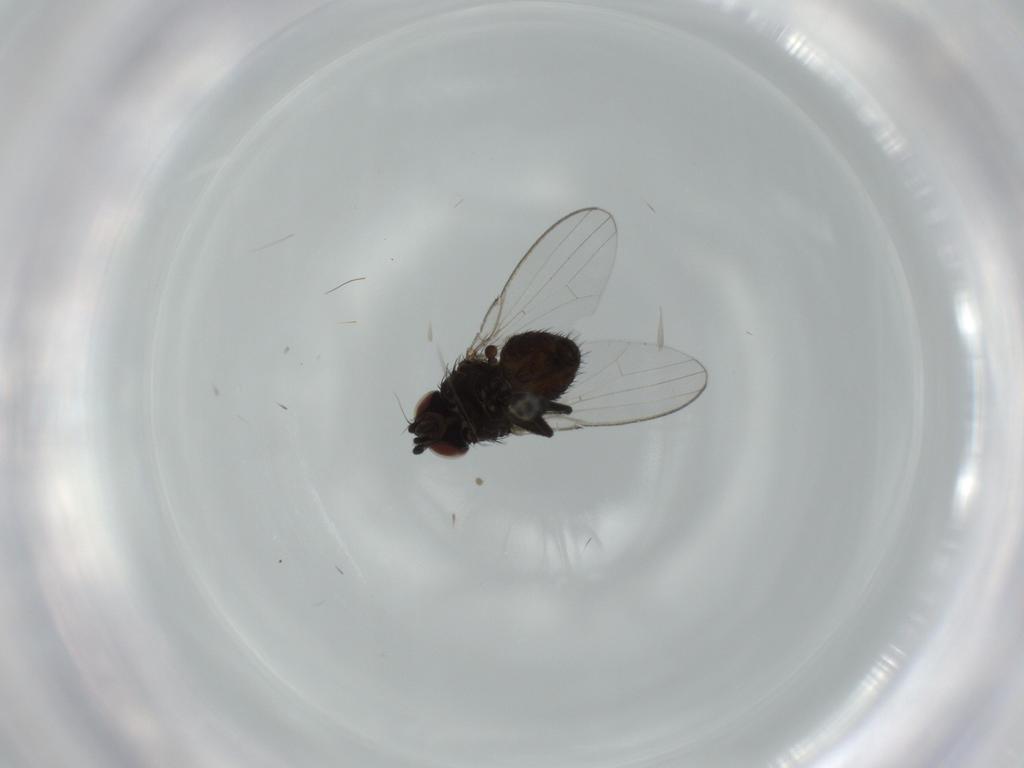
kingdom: Animalia
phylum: Arthropoda
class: Insecta
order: Diptera
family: Milichiidae
